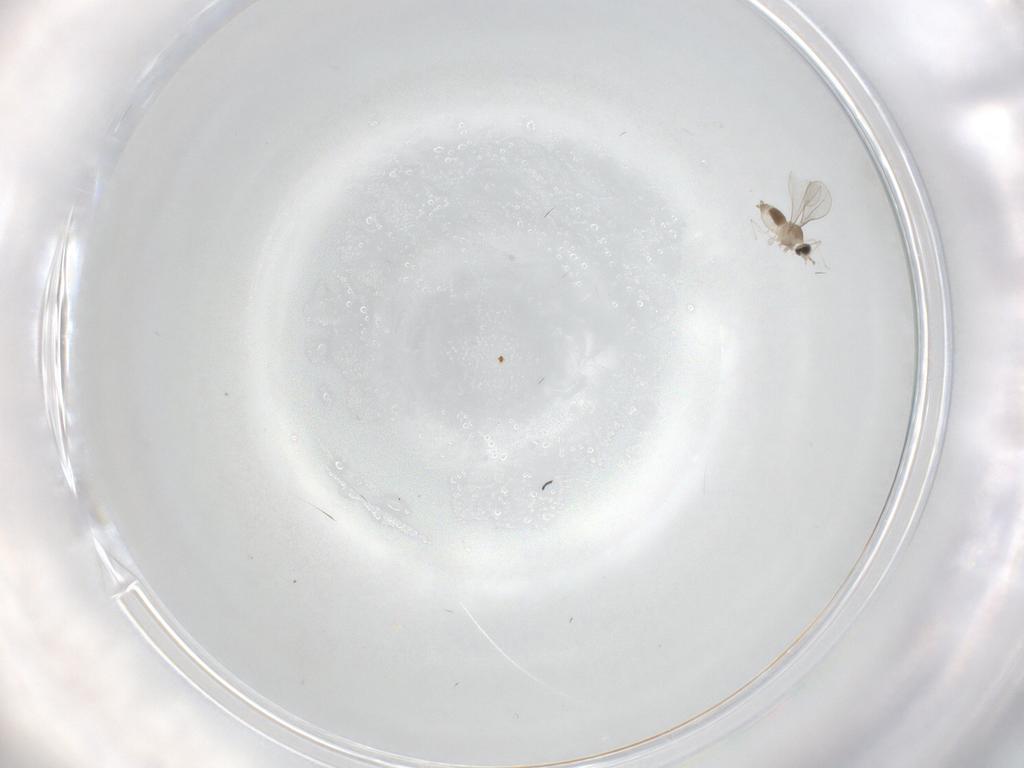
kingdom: Animalia
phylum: Arthropoda
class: Insecta
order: Diptera
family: Cecidomyiidae
